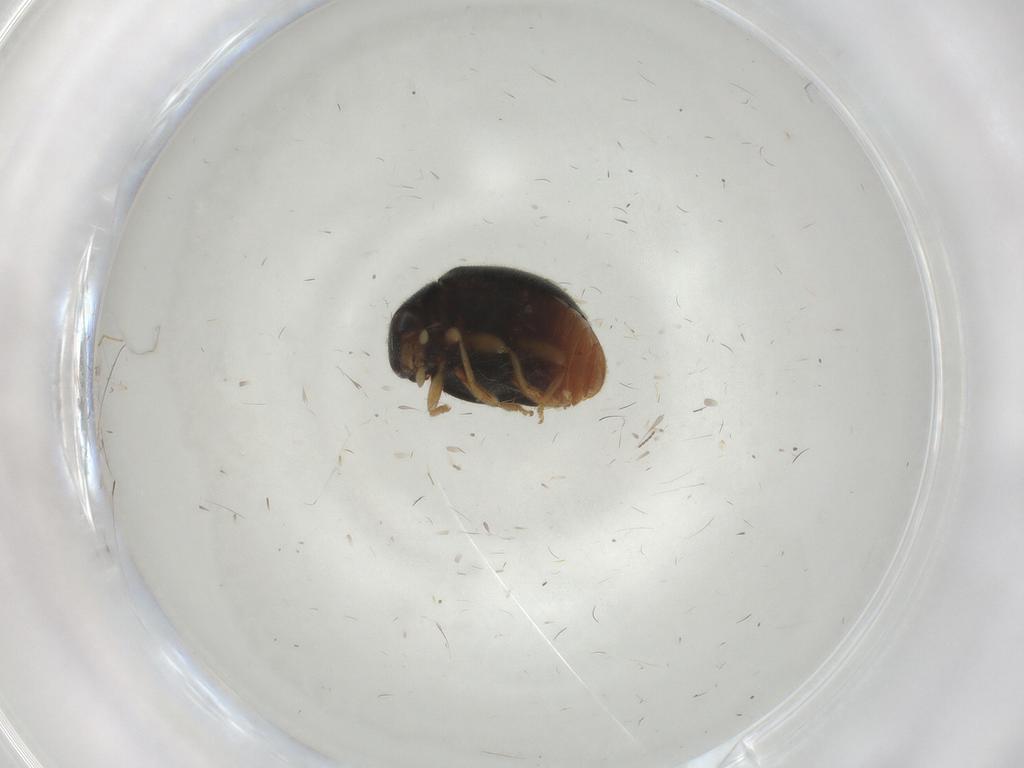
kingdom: Animalia
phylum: Arthropoda
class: Insecta
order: Coleoptera
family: Coccinellidae
